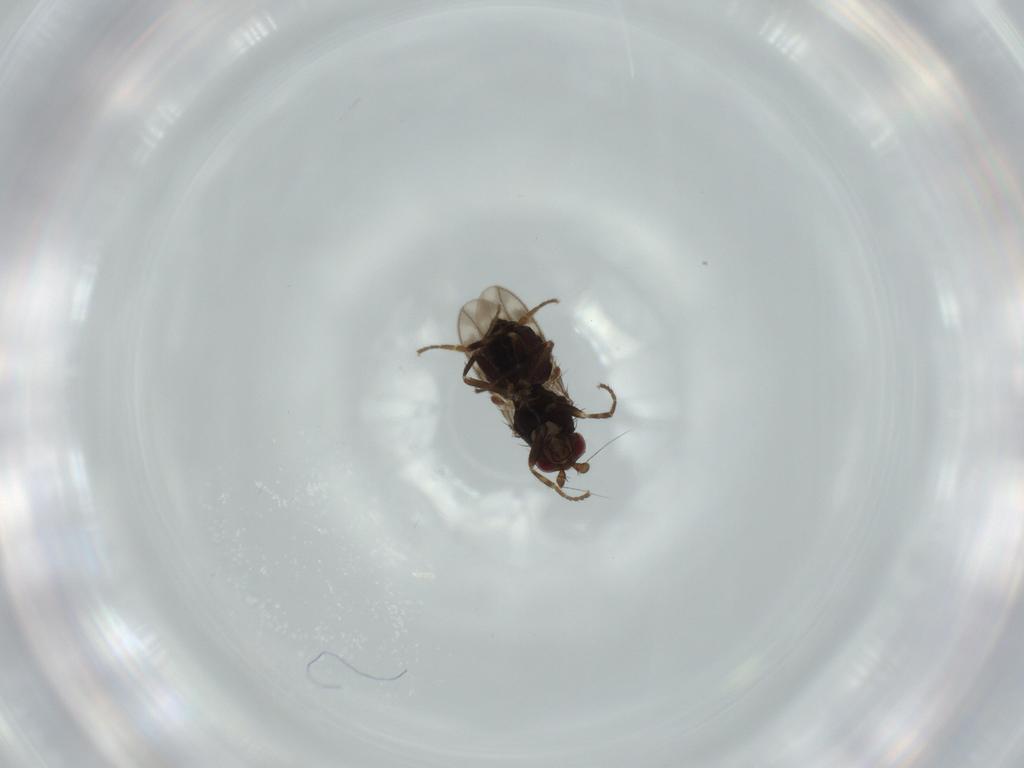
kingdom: Animalia
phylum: Arthropoda
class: Insecta
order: Diptera
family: Sphaeroceridae
